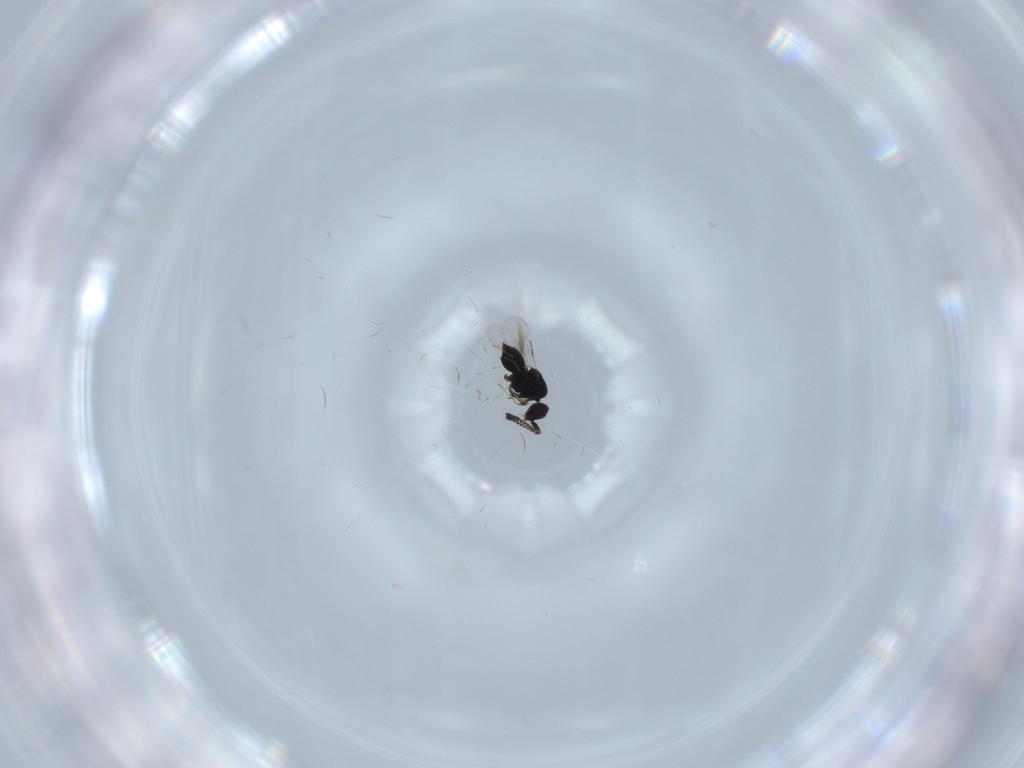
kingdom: Animalia
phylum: Arthropoda
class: Insecta
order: Hymenoptera
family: Ceraphronidae
